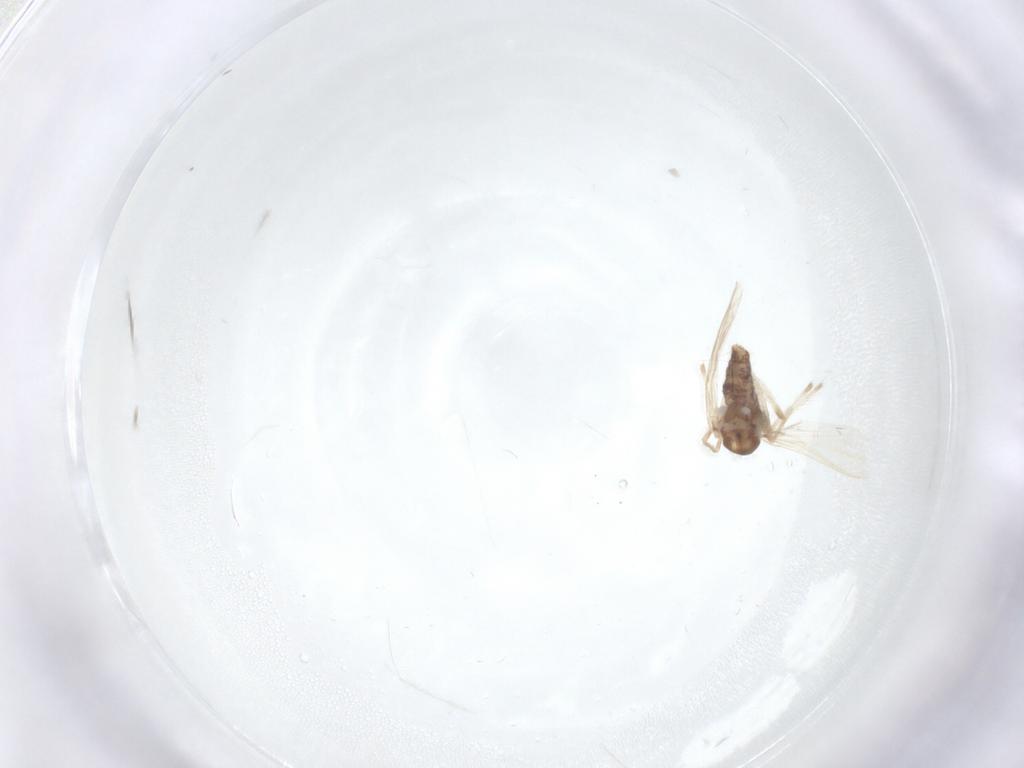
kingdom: Animalia
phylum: Arthropoda
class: Insecta
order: Diptera
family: Chironomidae
